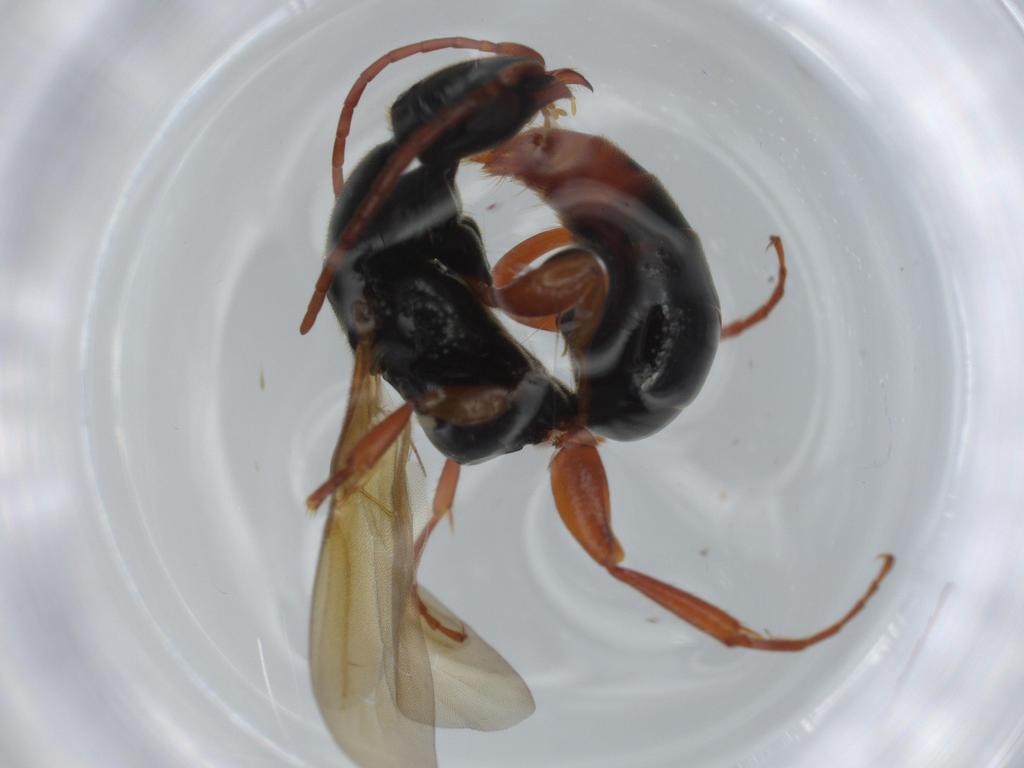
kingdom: Animalia
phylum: Arthropoda
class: Insecta
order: Hymenoptera
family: Bethylidae
